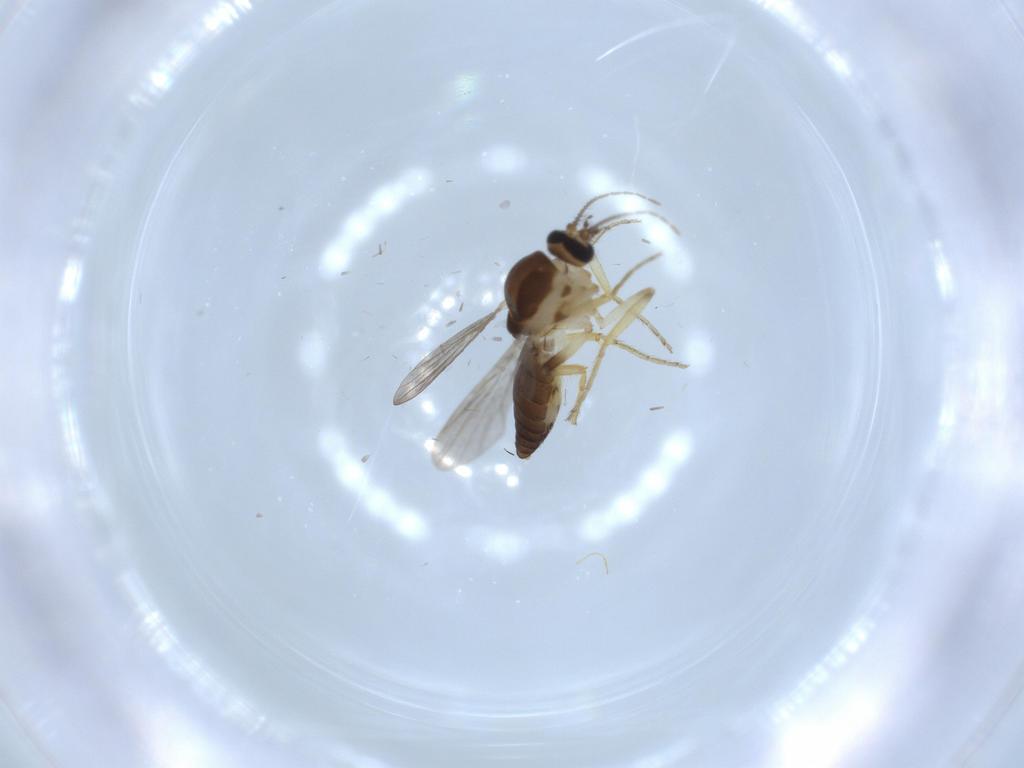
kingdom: Animalia
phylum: Arthropoda
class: Insecta
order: Diptera
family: Ceratopogonidae
